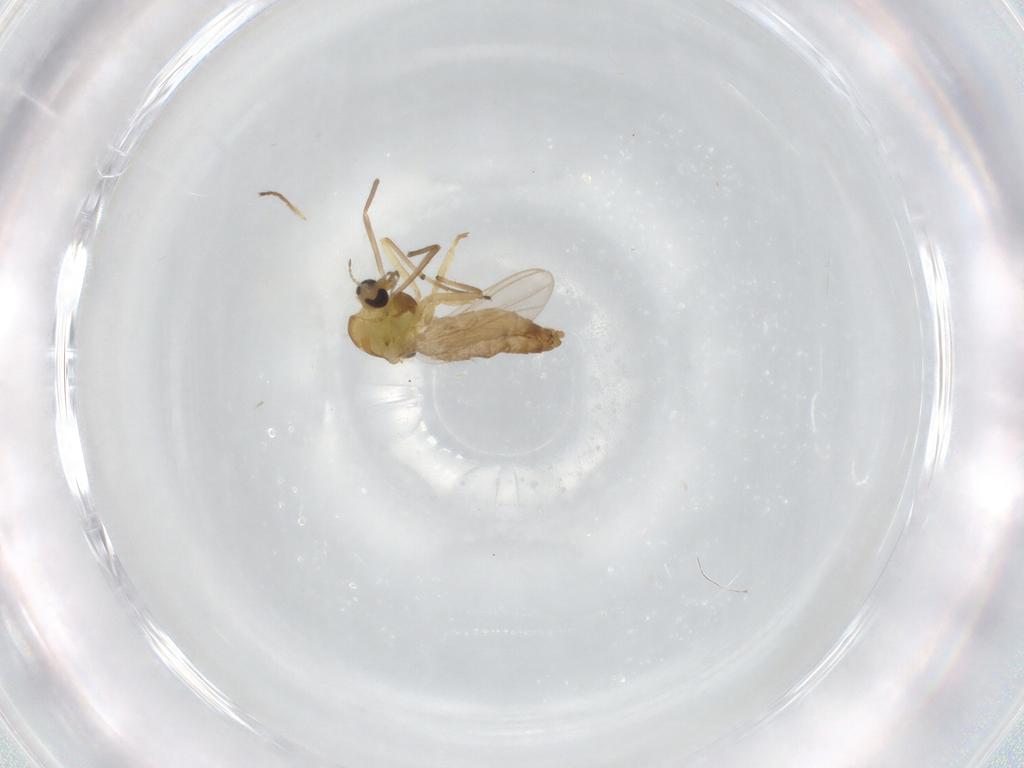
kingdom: Animalia
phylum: Arthropoda
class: Insecta
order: Diptera
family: Chironomidae
